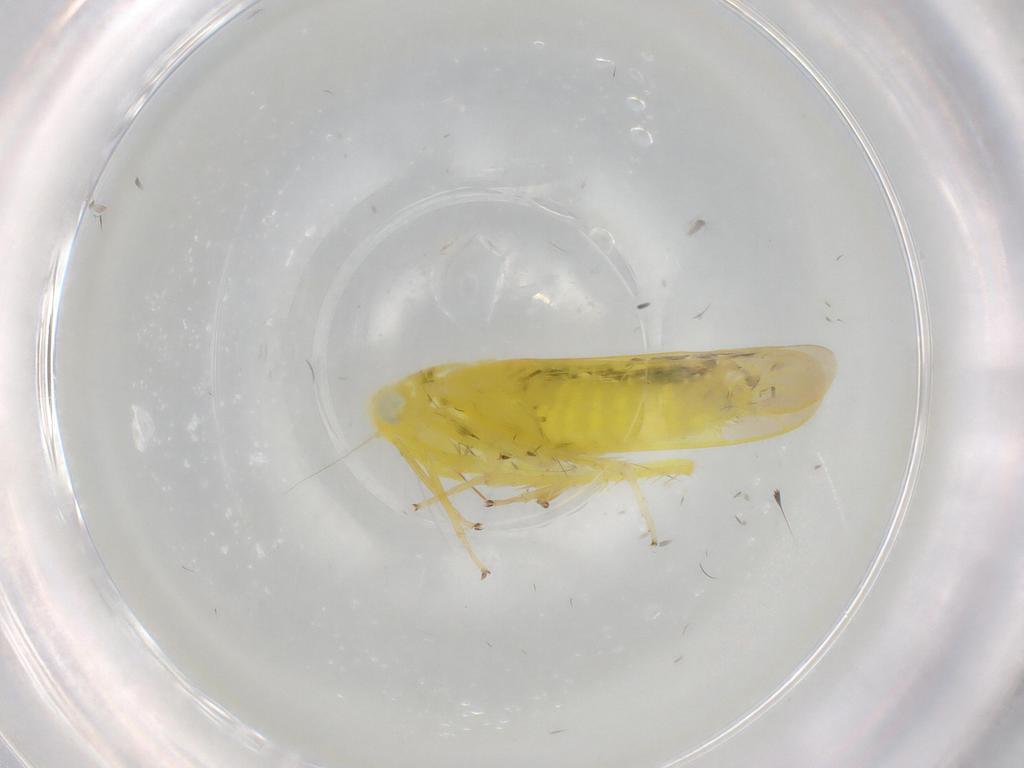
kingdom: Animalia
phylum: Arthropoda
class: Insecta
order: Hemiptera
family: Cicadellidae
